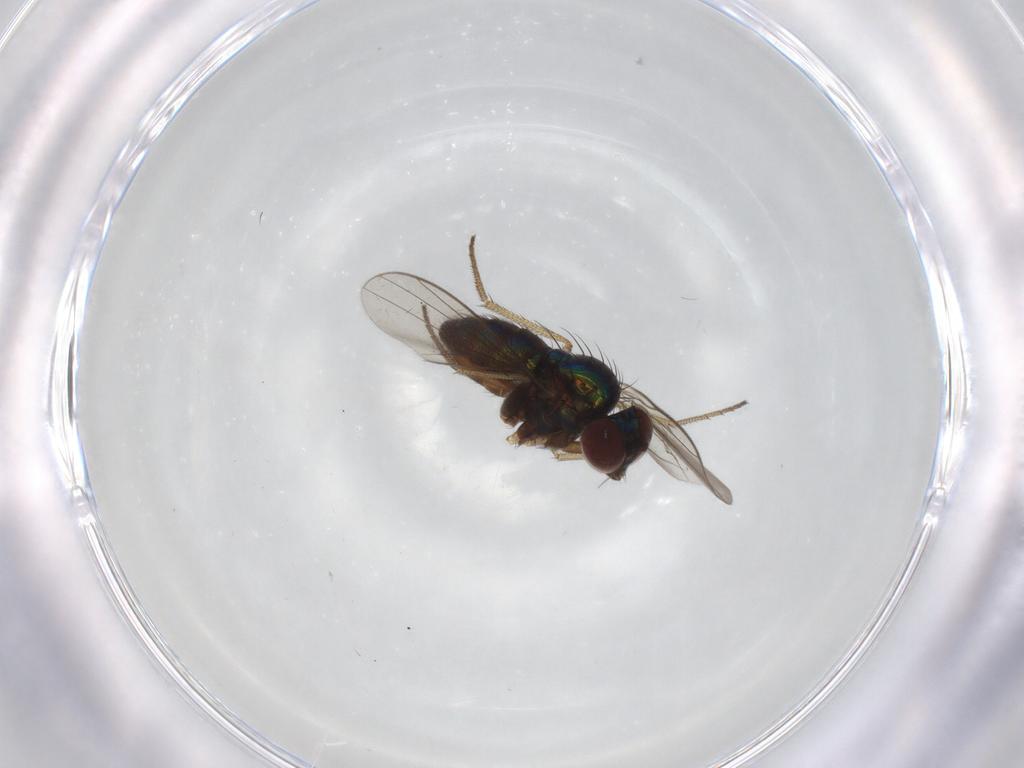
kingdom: Animalia
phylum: Arthropoda
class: Insecta
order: Diptera
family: Dolichopodidae
